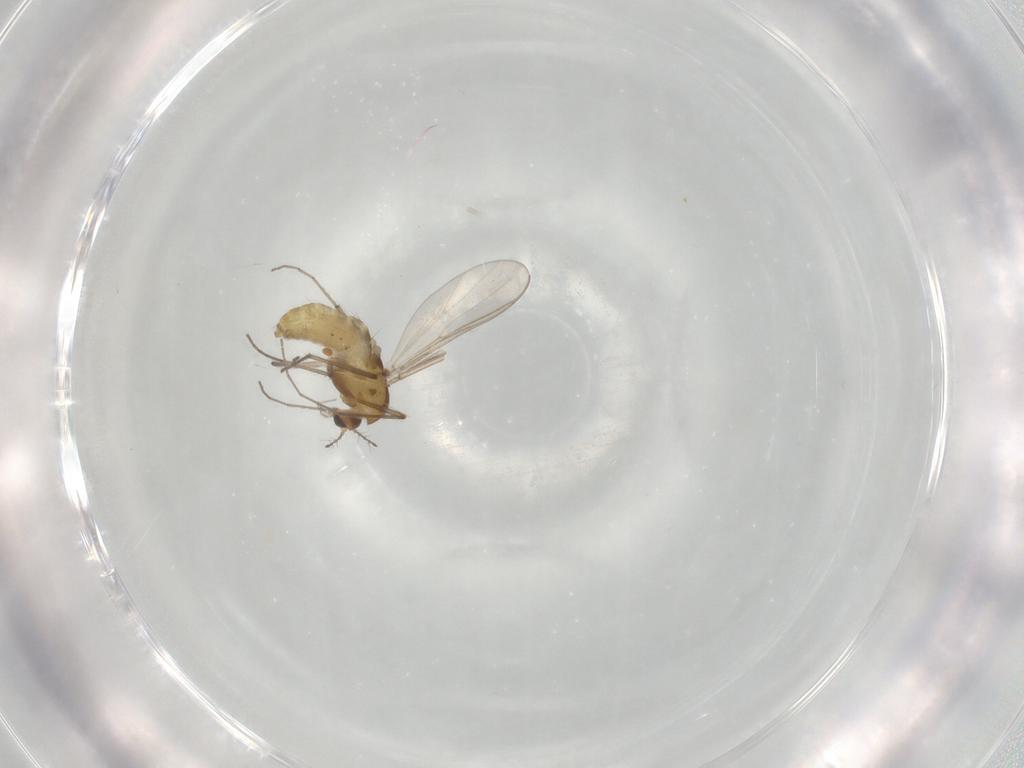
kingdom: Animalia
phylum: Arthropoda
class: Insecta
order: Diptera
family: Chironomidae
